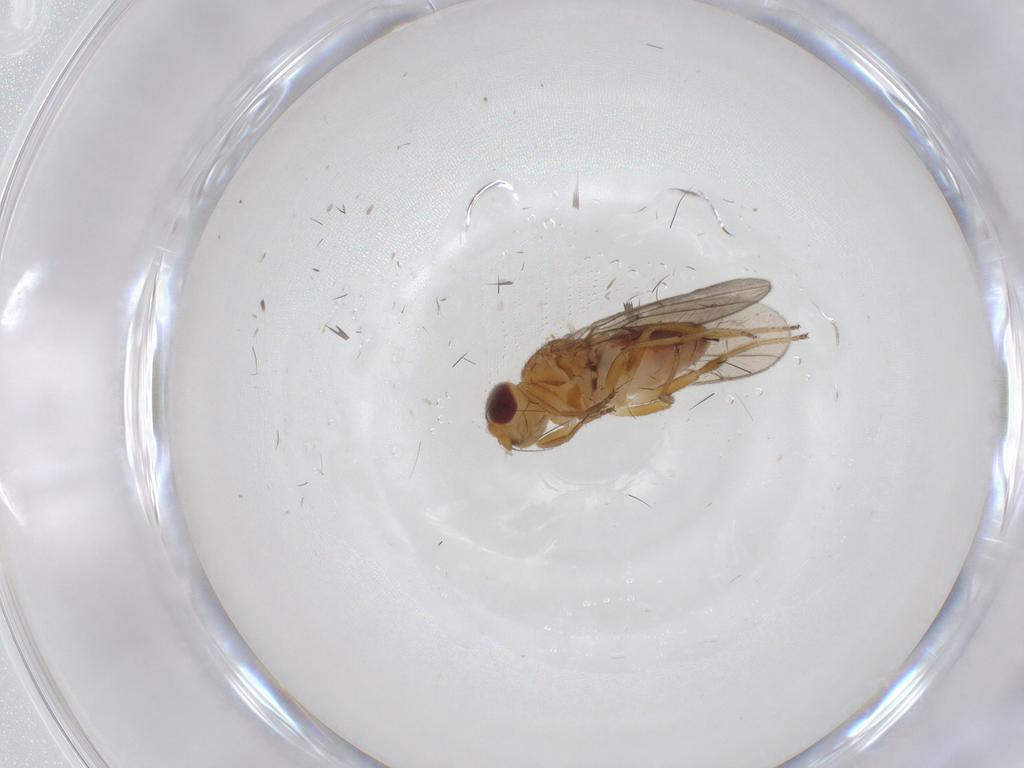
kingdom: Animalia
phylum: Arthropoda
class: Insecta
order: Diptera
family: Chloropidae
